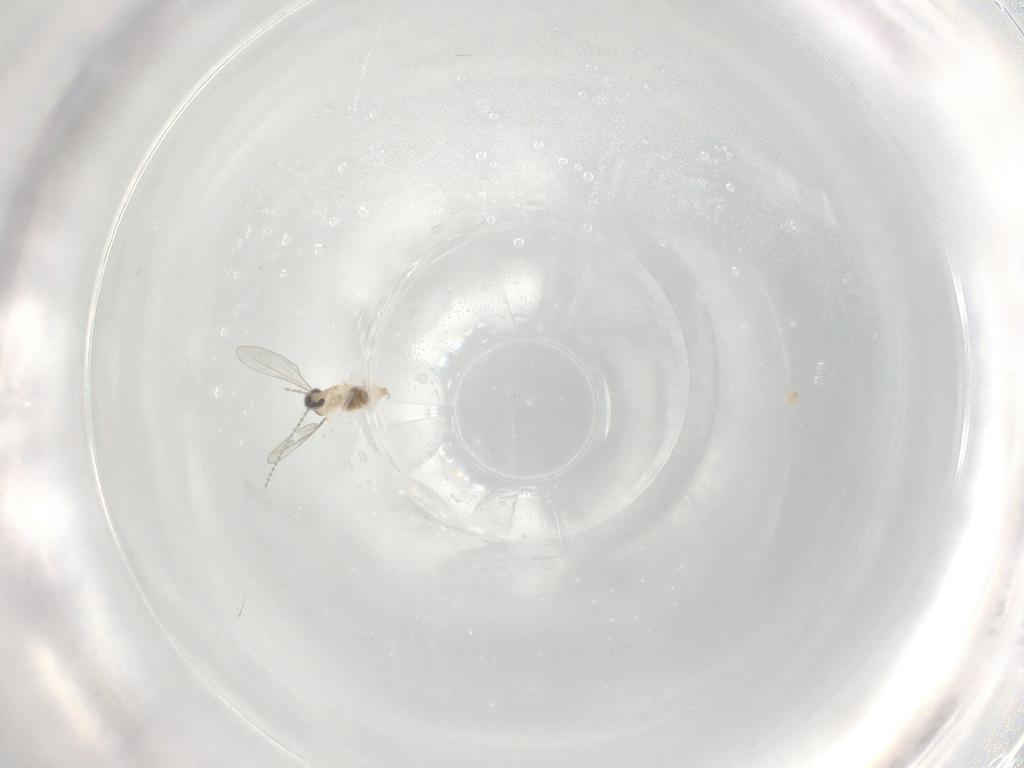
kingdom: Animalia
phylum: Arthropoda
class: Insecta
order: Diptera
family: Cecidomyiidae
